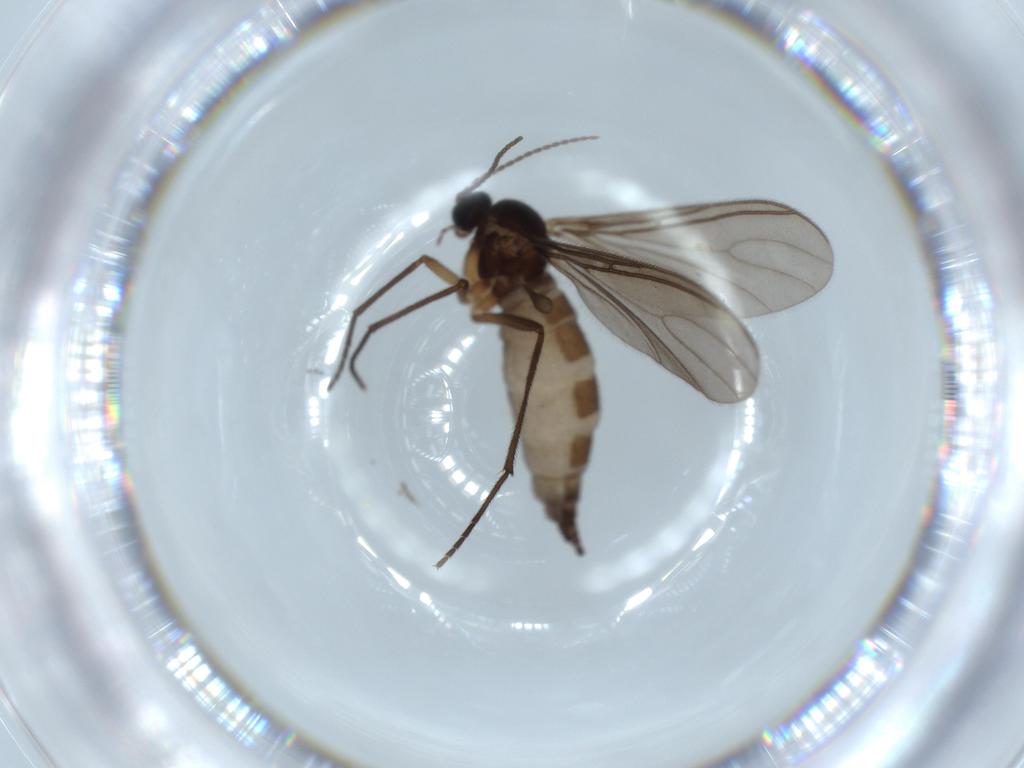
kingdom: Animalia
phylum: Arthropoda
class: Insecta
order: Diptera
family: Sciaridae
